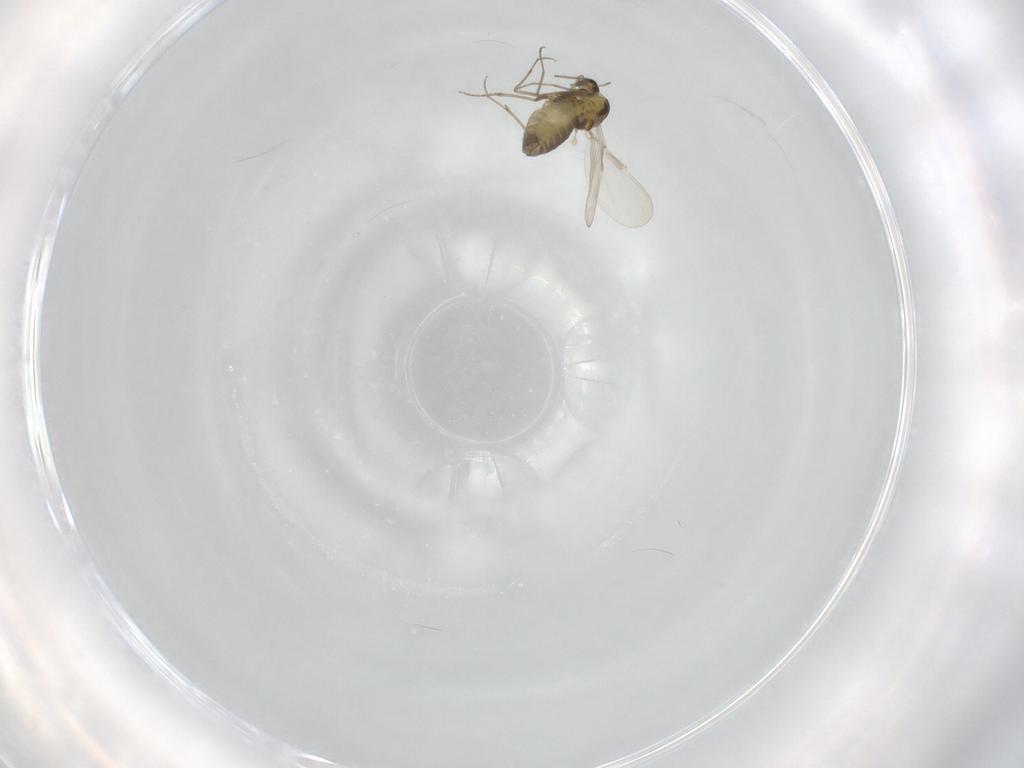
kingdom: Animalia
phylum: Arthropoda
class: Insecta
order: Diptera
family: Chironomidae
